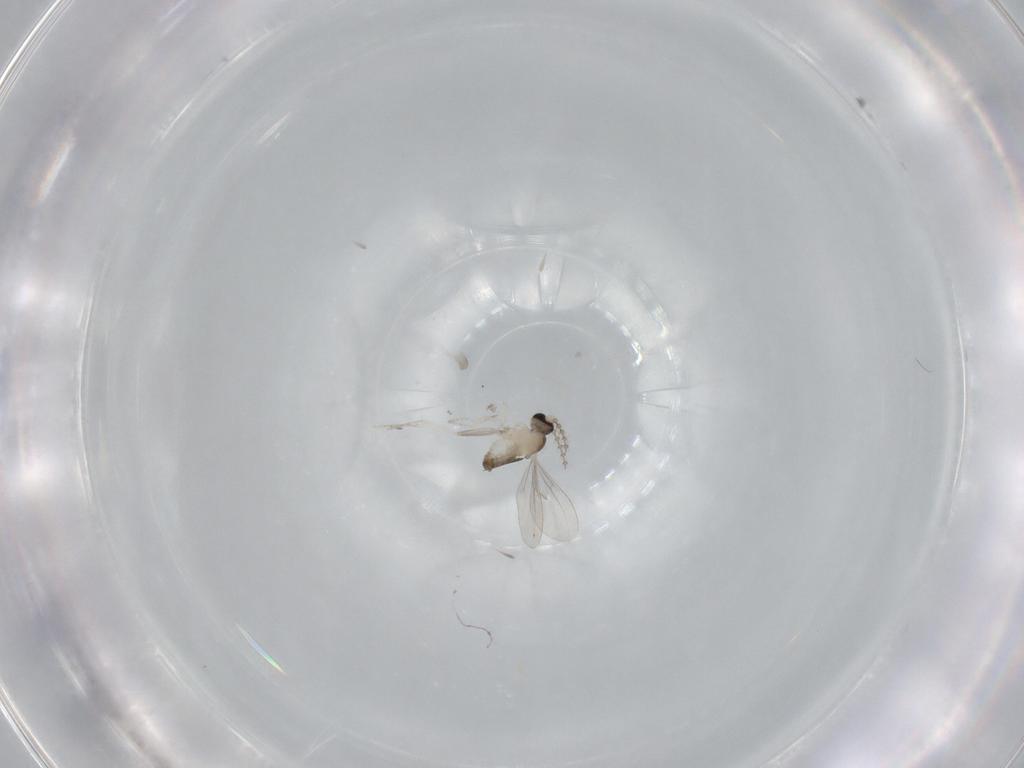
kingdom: Animalia
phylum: Arthropoda
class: Insecta
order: Diptera
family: Cecidomyiidae
